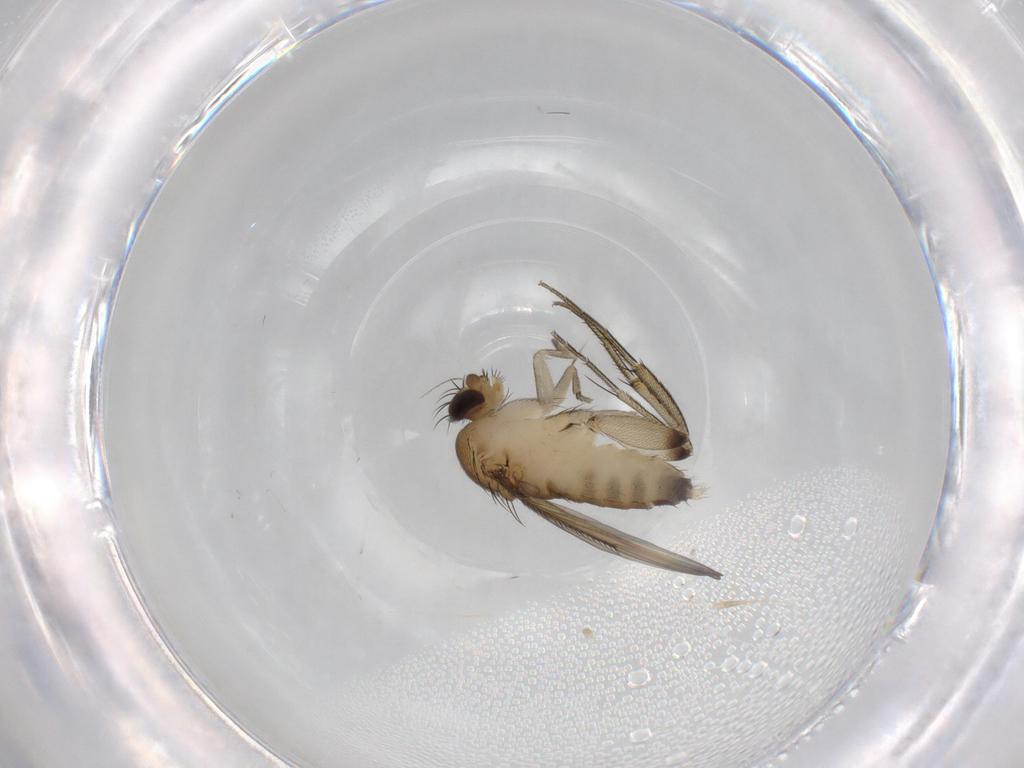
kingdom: Animalia
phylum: Arthropoda
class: Insecta
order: Diptera
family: Phoridae
